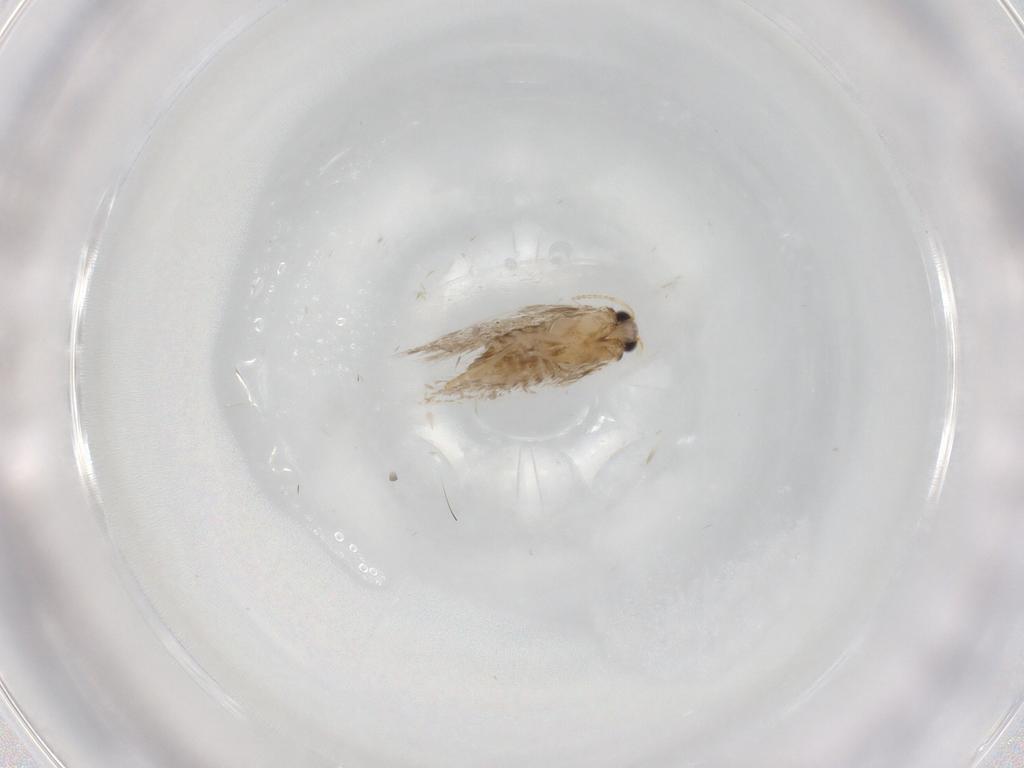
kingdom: Animalia
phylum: Arthropoda
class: Insecta
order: Lepidoptera
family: Nepticulidae
